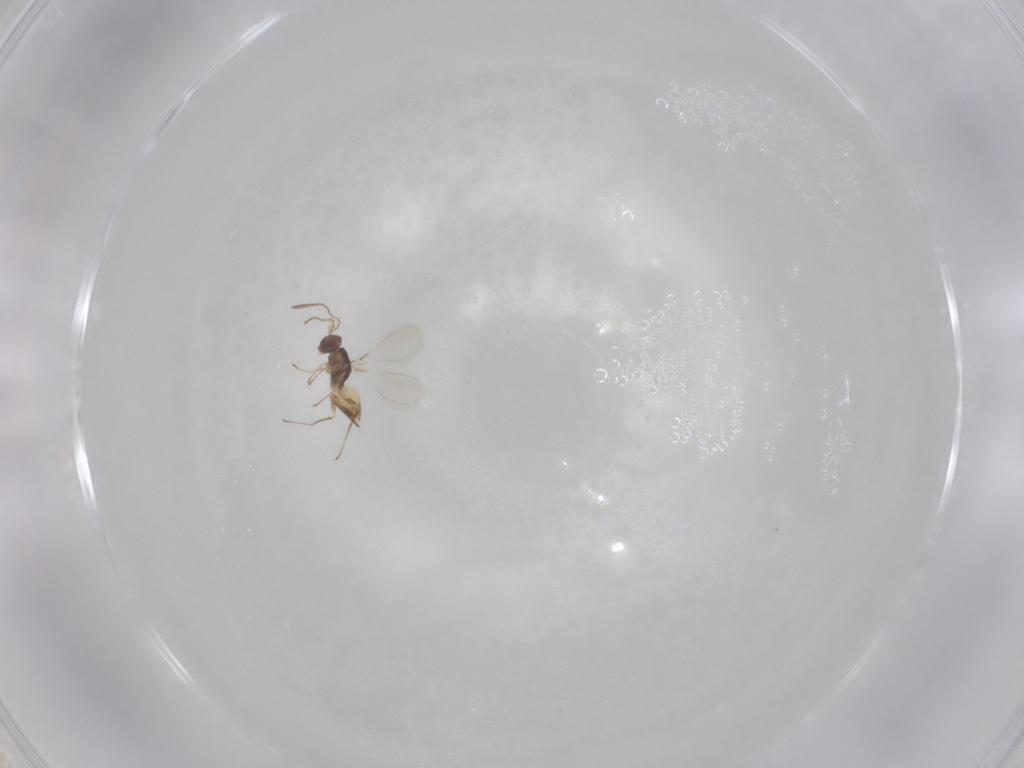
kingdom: Animalia
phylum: Arthropoda
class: Insecta
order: Hymenoptera
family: Mymaridae
